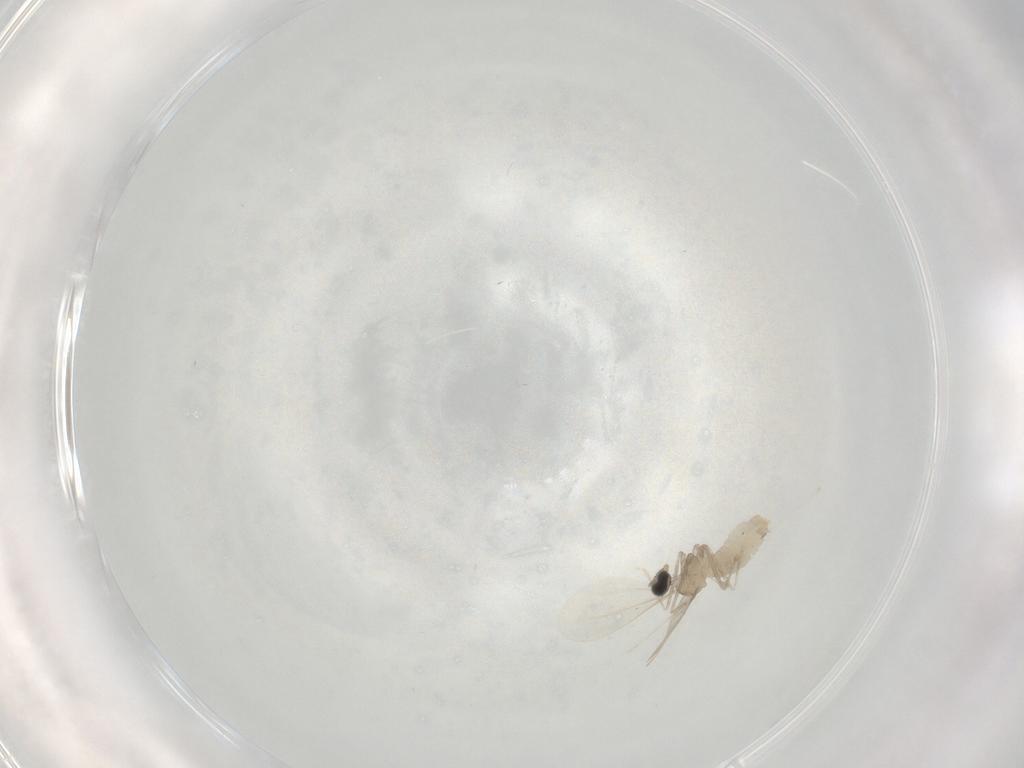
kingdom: Animalia
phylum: Arthropoda
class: Insecta
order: Diptera
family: Cecidomyiidae
